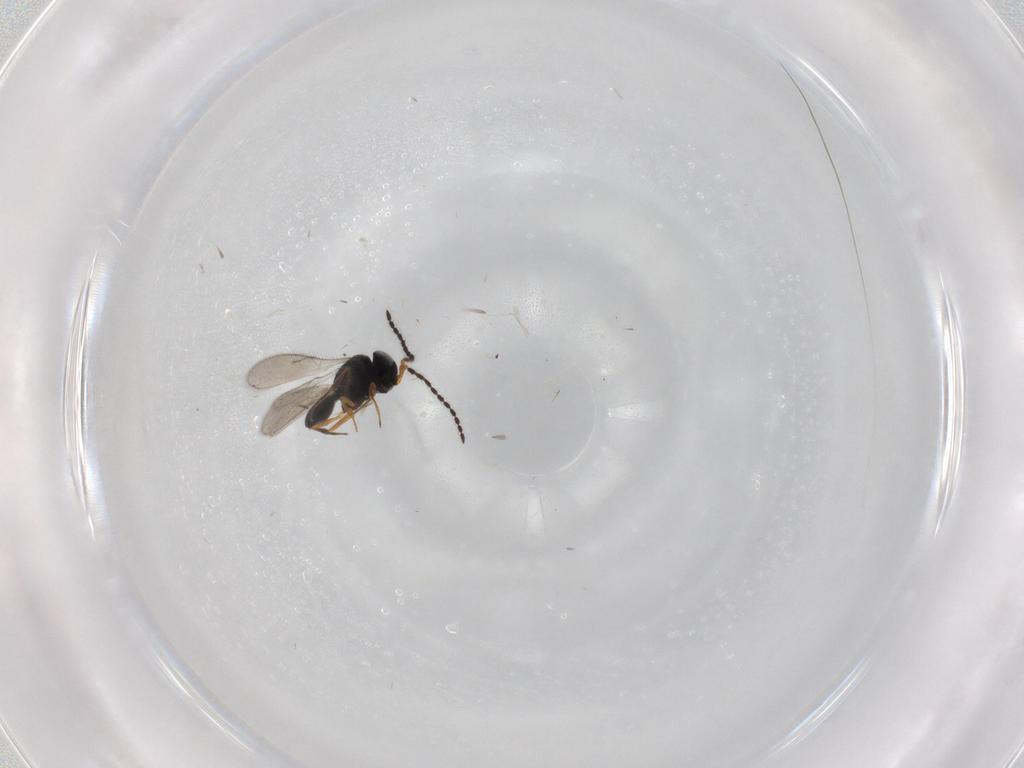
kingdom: Animalia
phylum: Arthropoda
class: Insecta
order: Hymenoptera
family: Scelionidae
